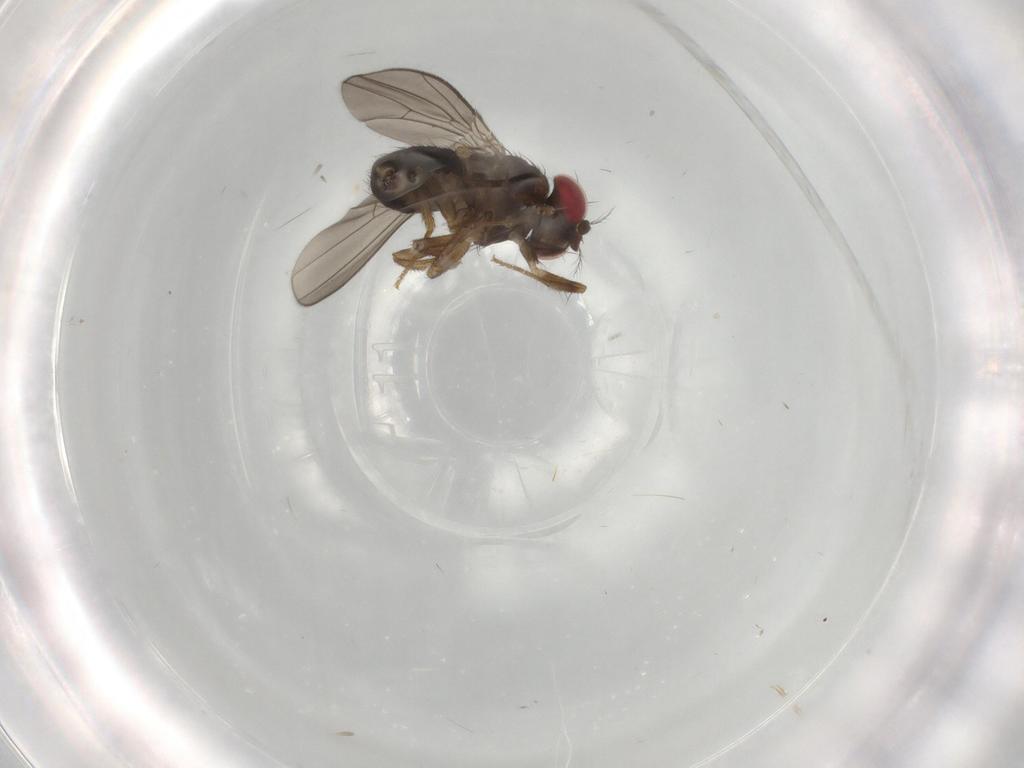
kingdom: Animalia
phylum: Arthropoda
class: Insecta
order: Diptera
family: Drosophilidae
